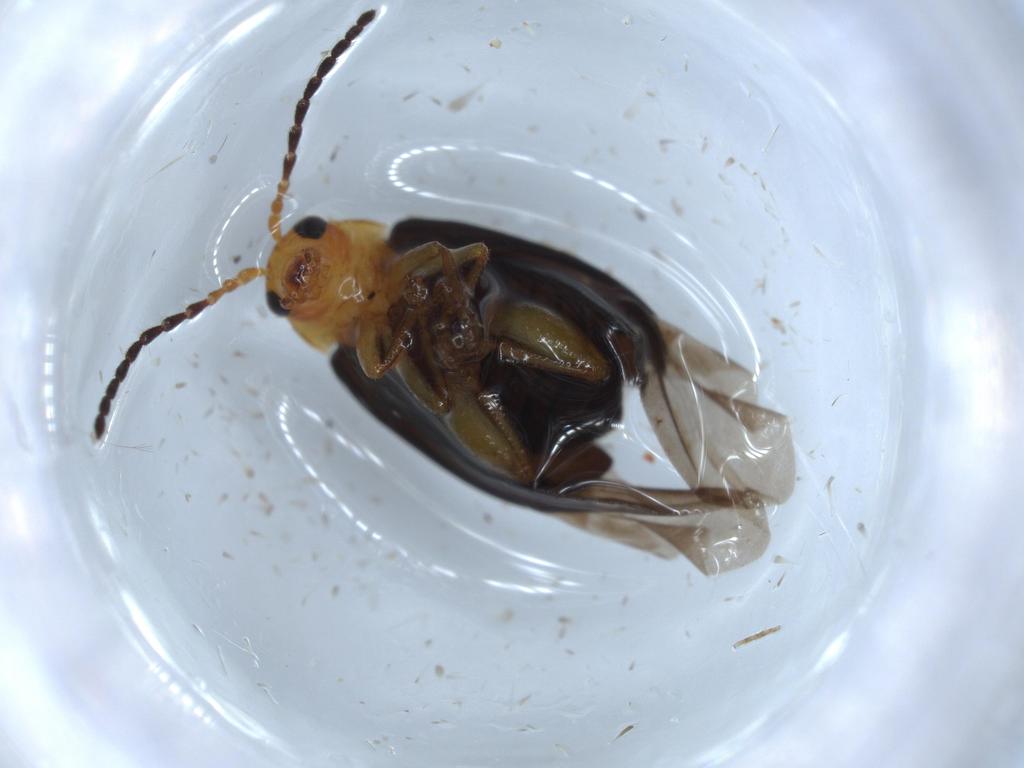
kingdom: Animalia
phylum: Arthropoda
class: Insecta
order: Coleoptera
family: Chrysomelidae
